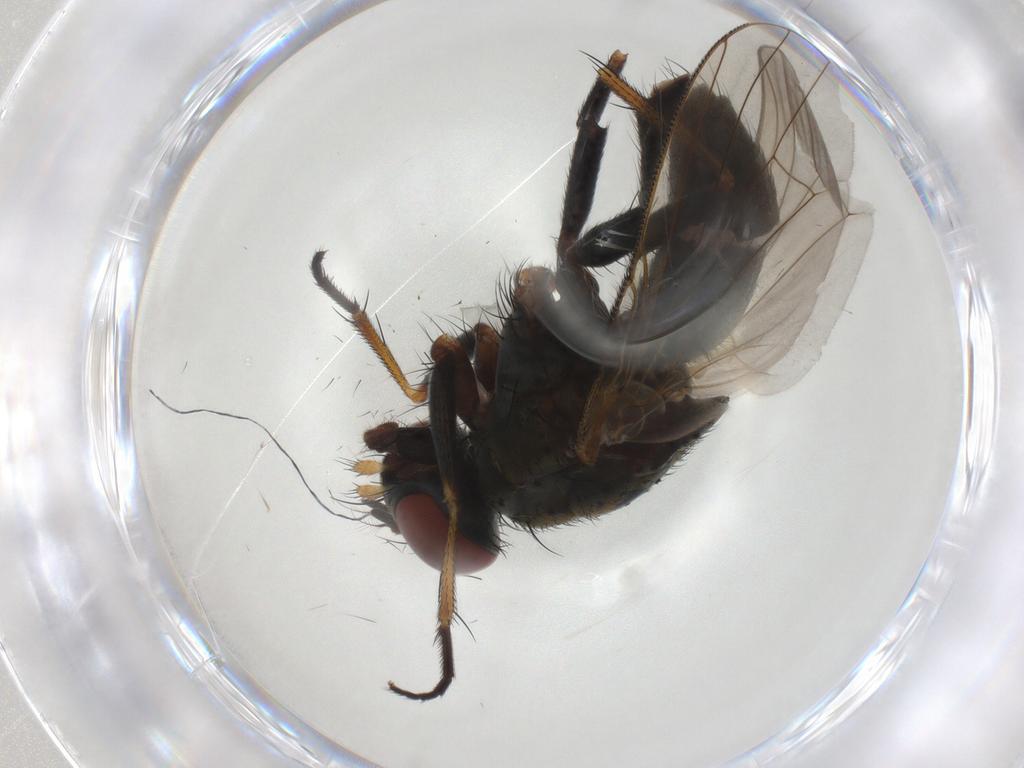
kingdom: Animalia
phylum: Arthropoda
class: Insecta
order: Diptera
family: Muscidae
